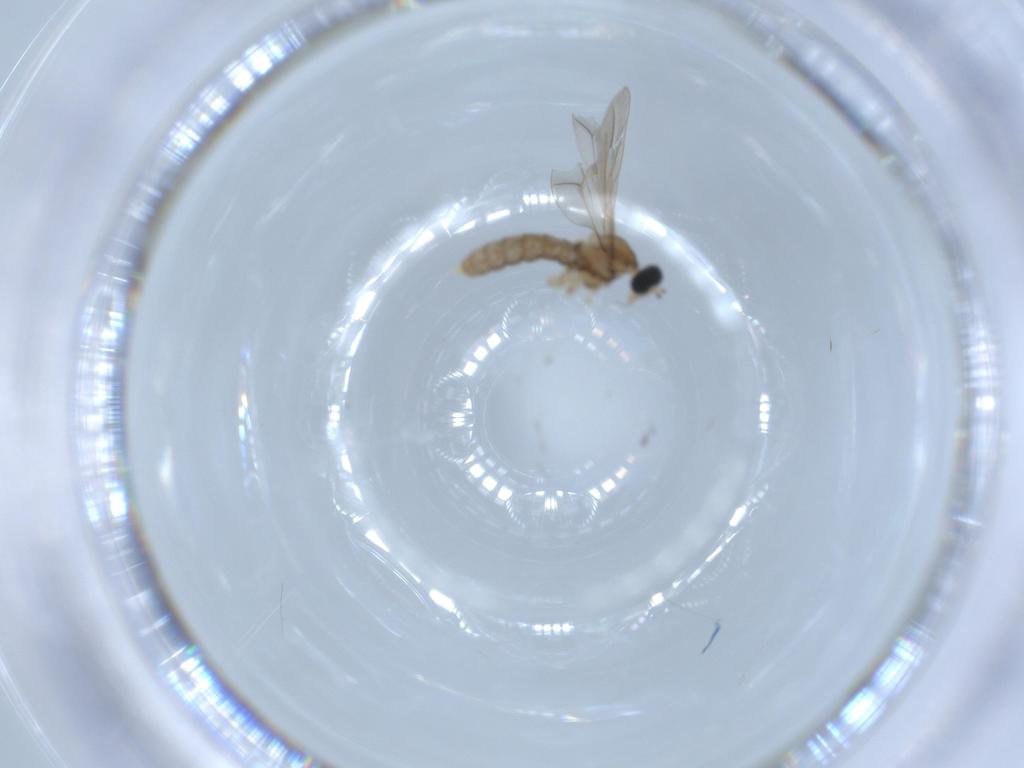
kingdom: Animalia
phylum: Arthropoda
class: Insecta
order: Diptera
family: Cecidomyiidae
